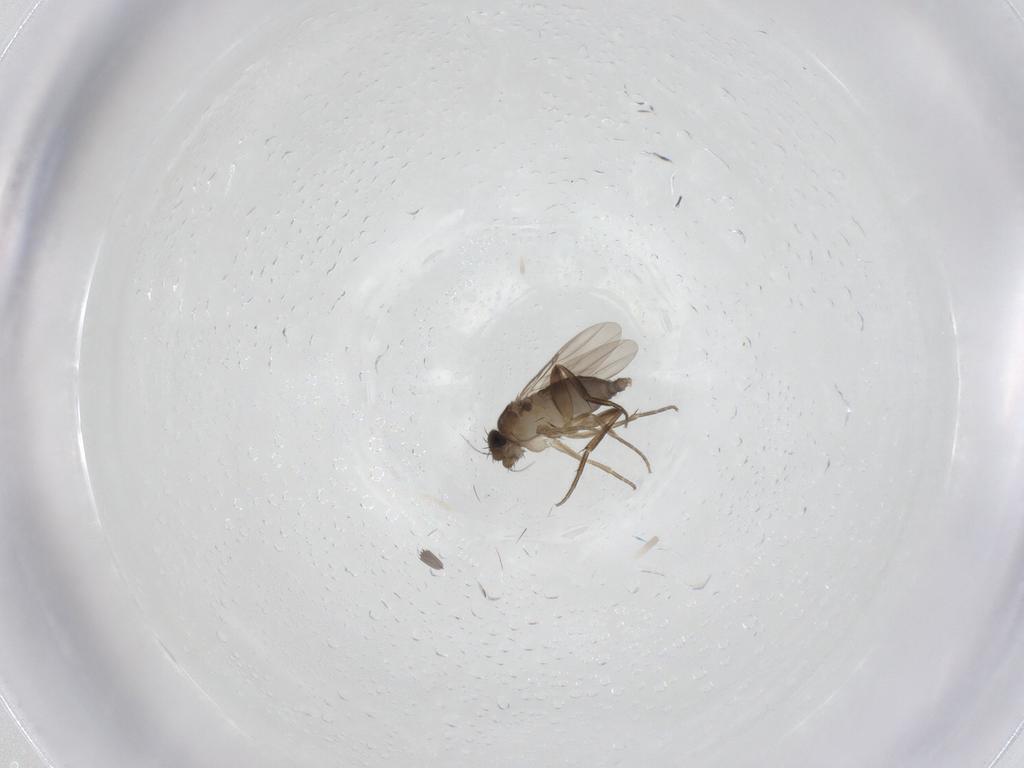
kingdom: Animalia
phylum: Arthropoda
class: Insecta
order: Diptera
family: Phoridae
